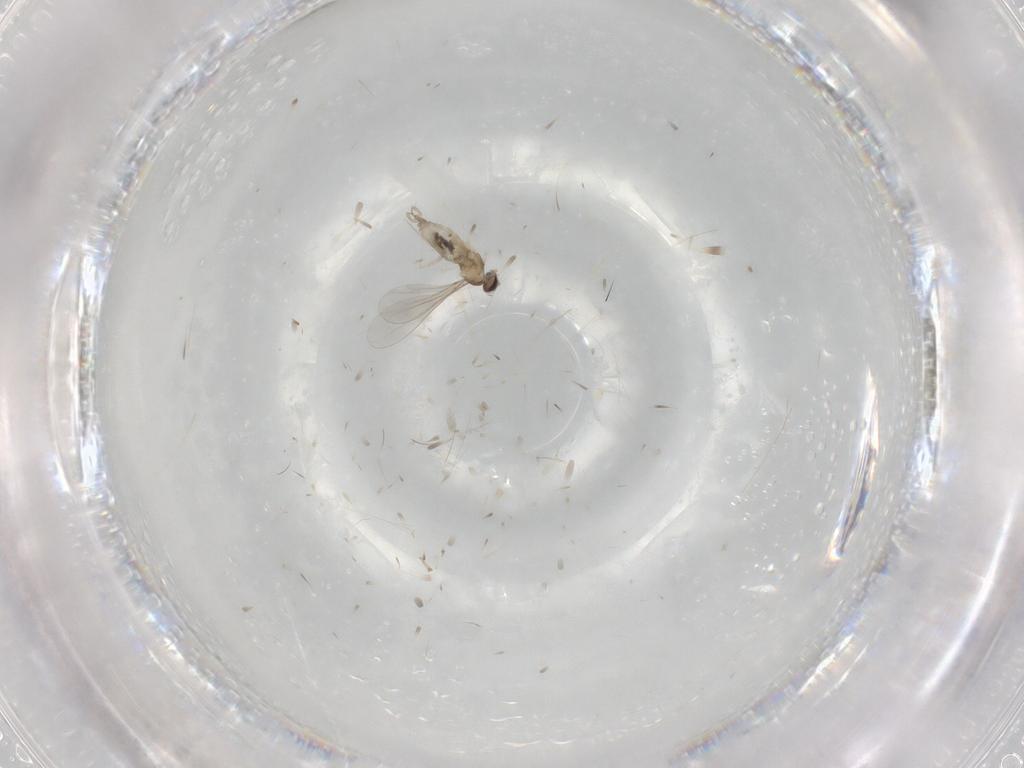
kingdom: Animalia
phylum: Arthropoda
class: Insecta
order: Diptera
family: Cecidomyiidae
